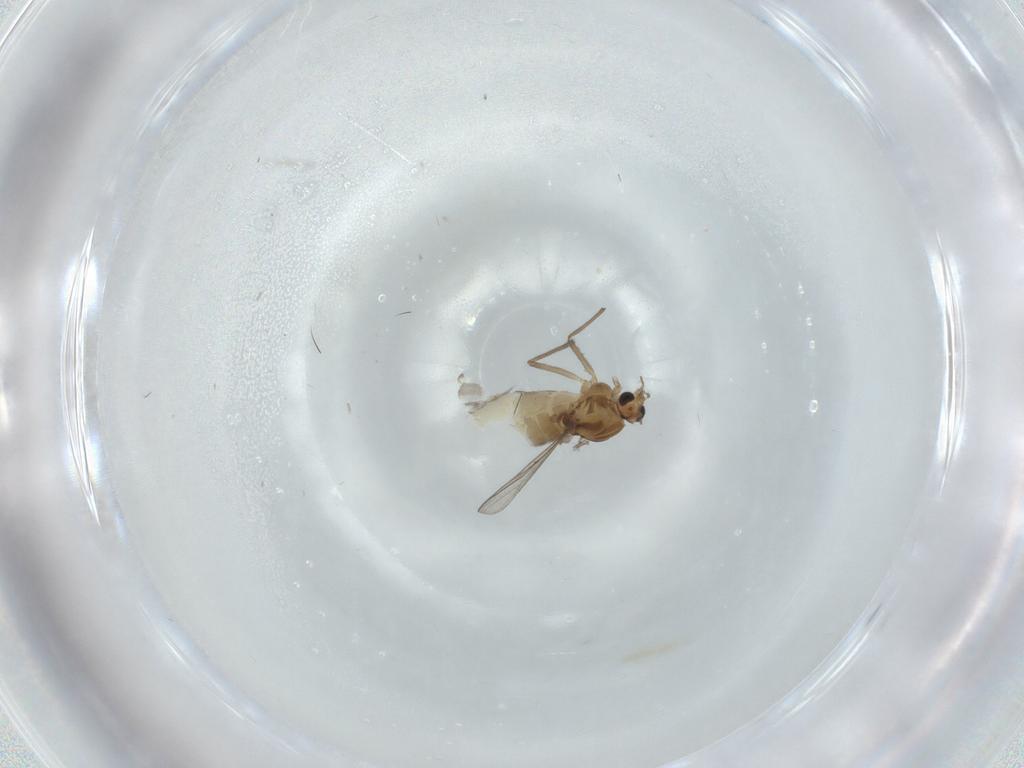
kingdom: Animalia
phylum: Arthropoda
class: Insecta
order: Diptera
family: Chironomidae
